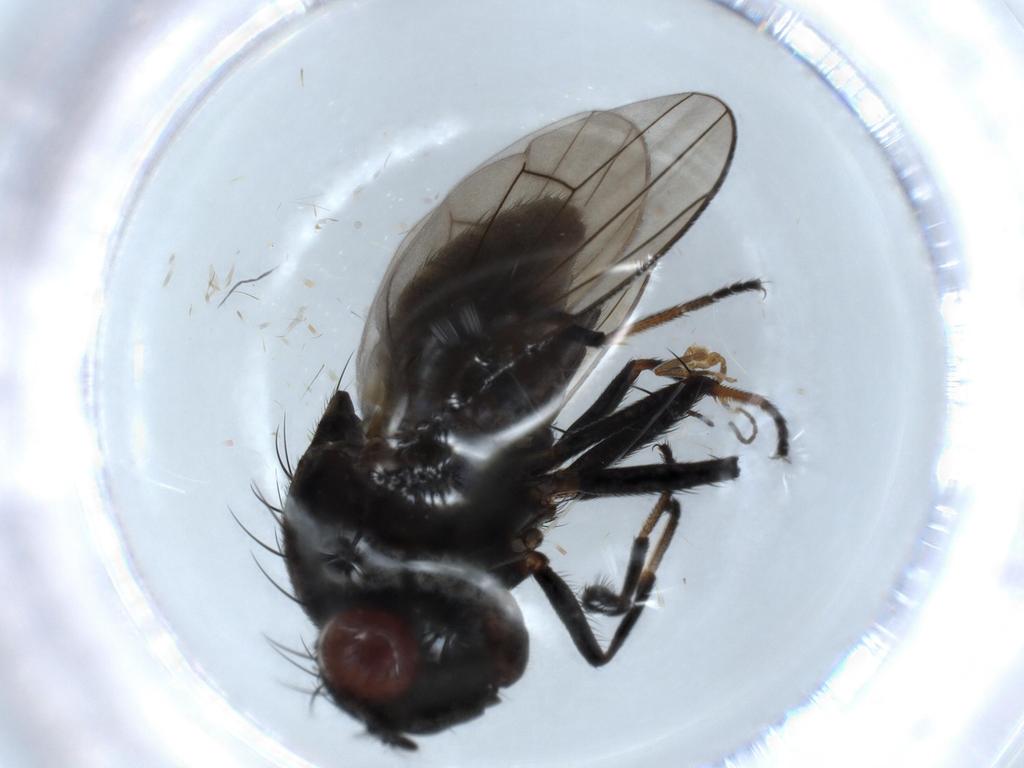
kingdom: Animalia
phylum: Arthropoda
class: Insecta
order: Diptera
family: Ephydridae
